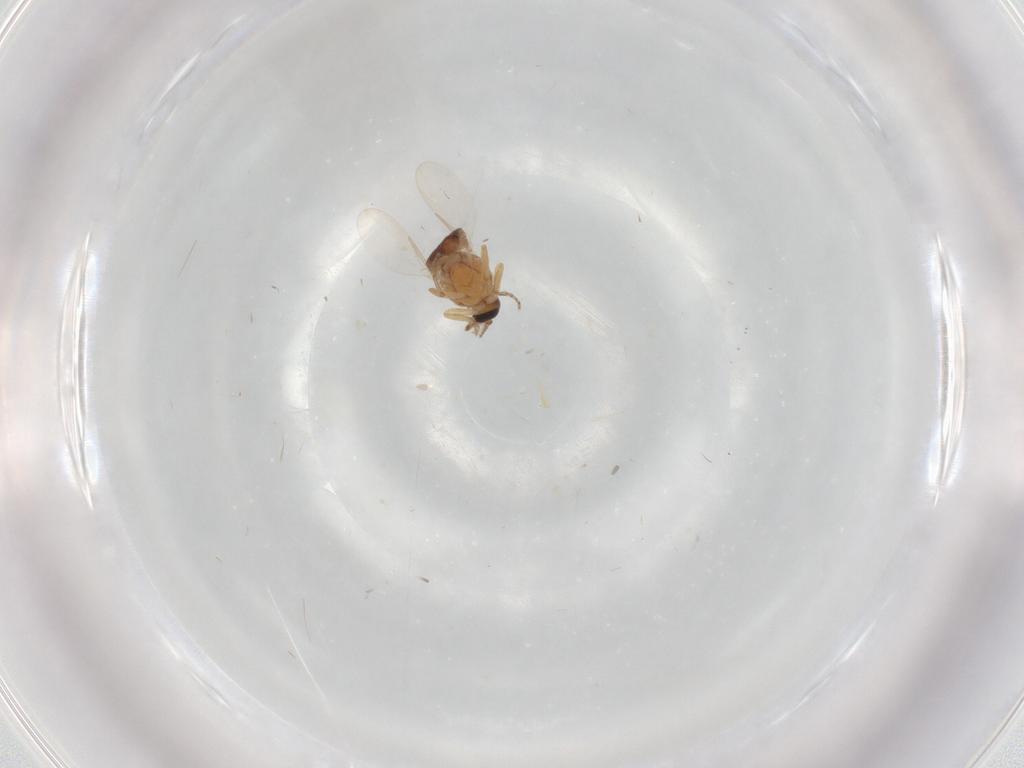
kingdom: Animalia
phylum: Arthropoda
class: Insecta
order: Diptera
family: Ceratopogonidae
